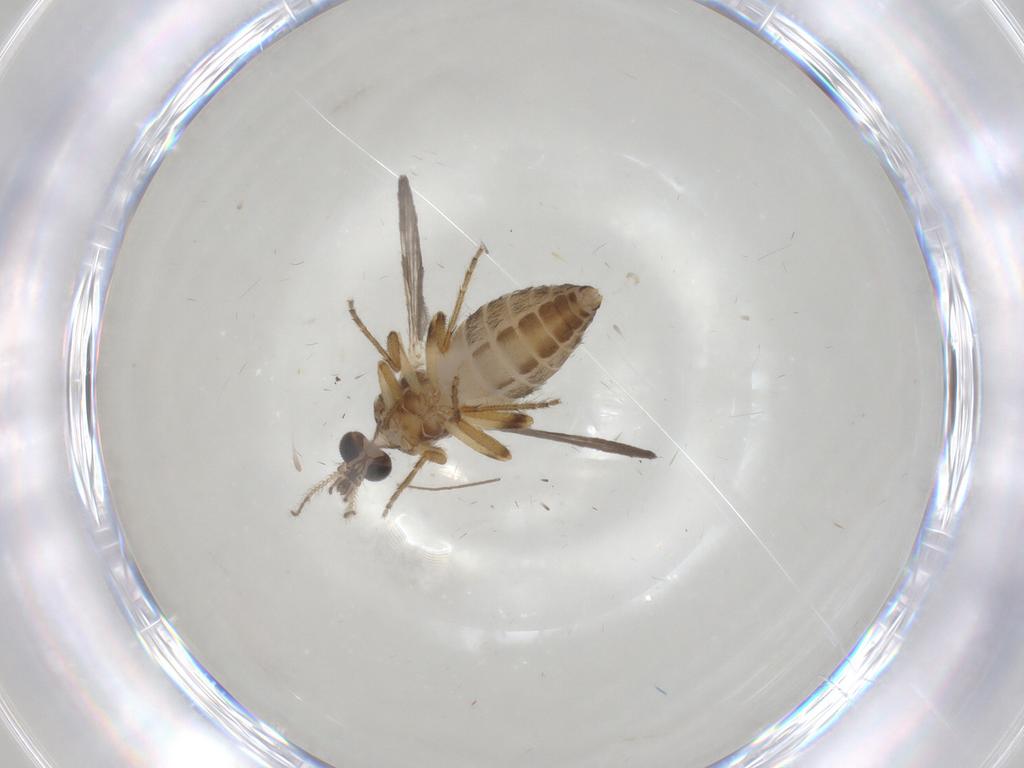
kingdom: Animalia
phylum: Arthropoda
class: Insecta
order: Diptera
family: Chironomidae
